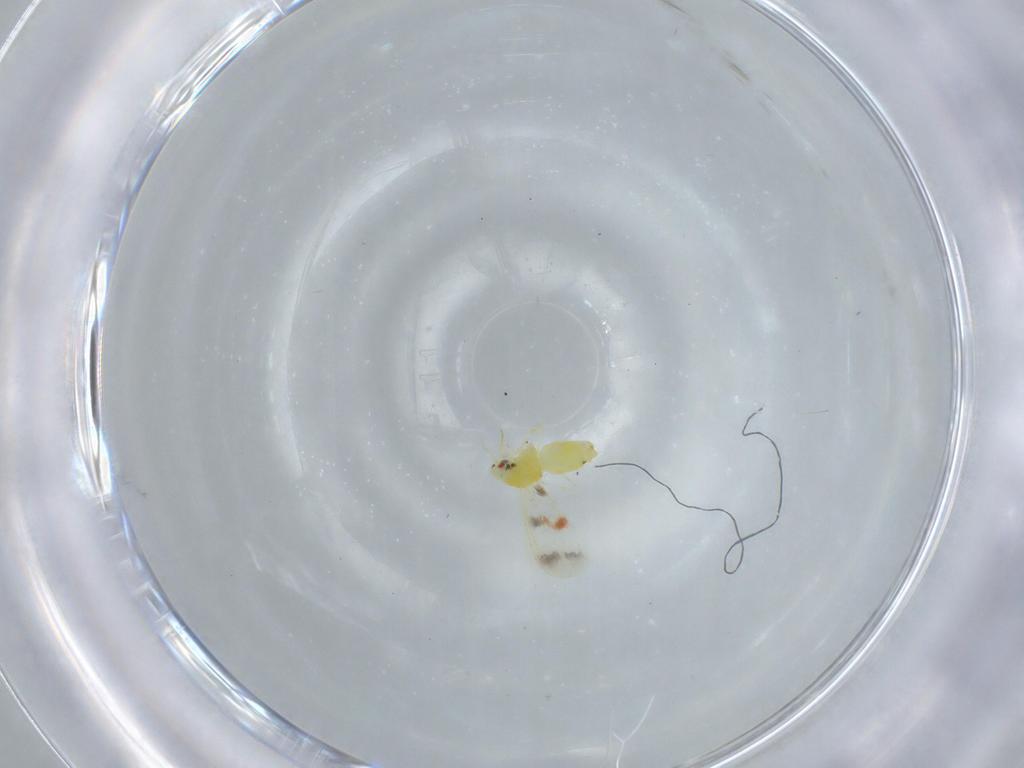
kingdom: Animalia
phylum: Arthropoda
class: Insecta
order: Hemiptera
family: Aleyrodidae
